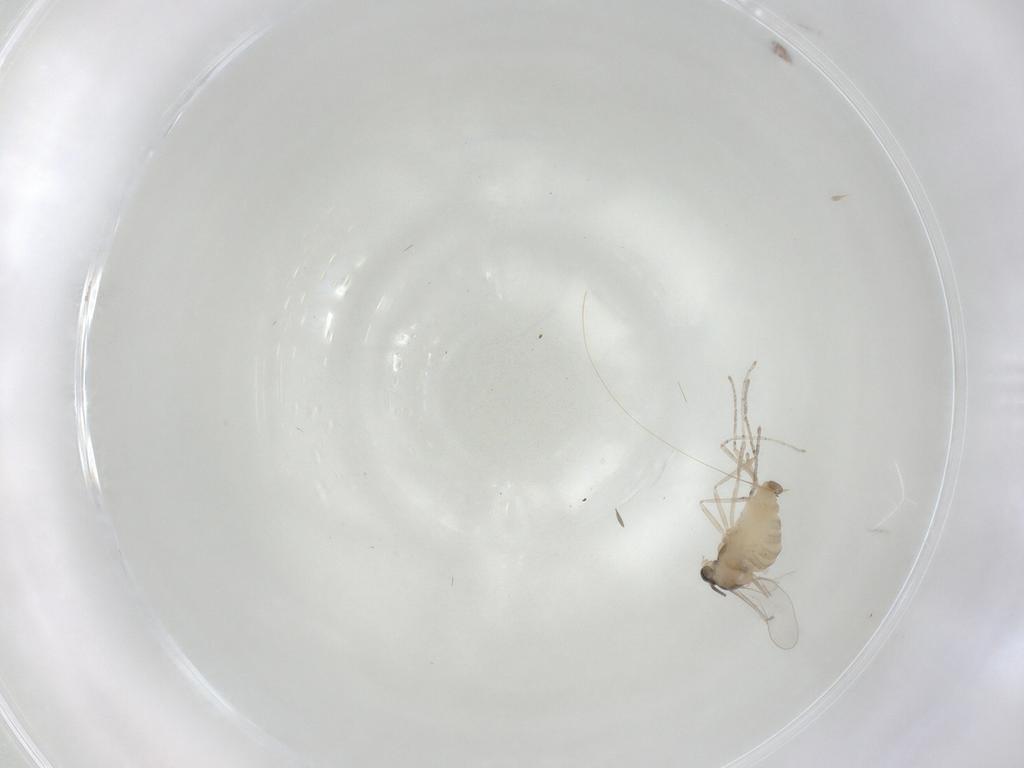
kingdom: Animalia
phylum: Arthropoda
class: Insecta
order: Diptera
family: Cecidomyiidae
